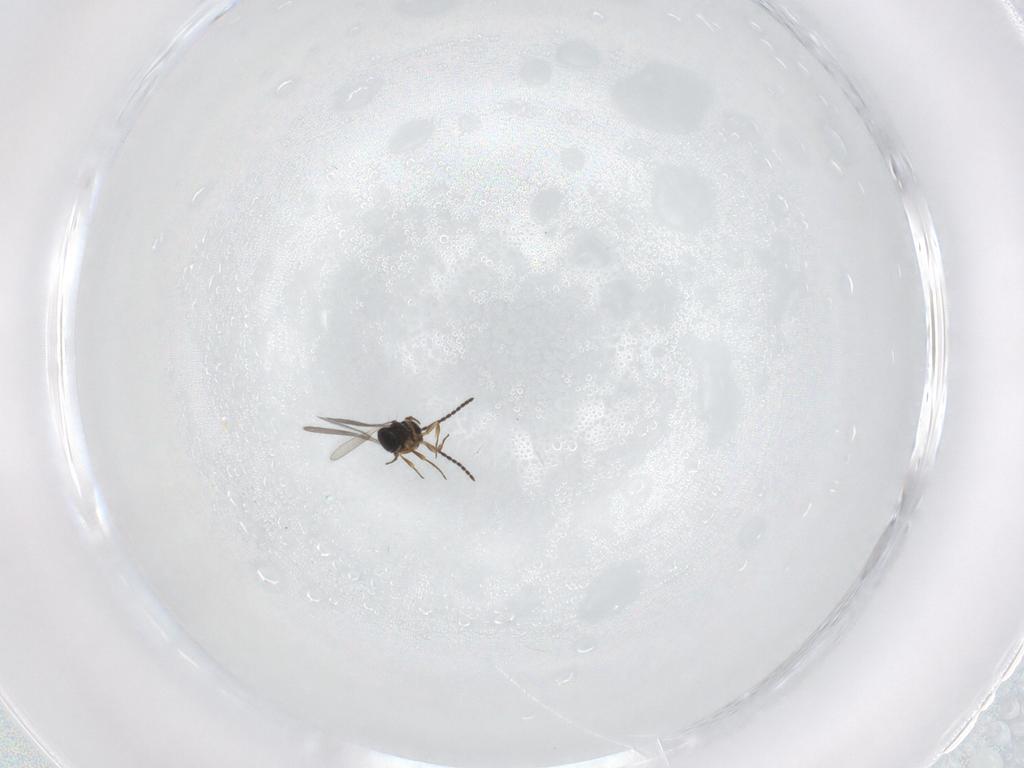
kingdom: Animalia
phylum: Arthropoda
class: Insecta
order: Hymenoptera
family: Scelionidae
